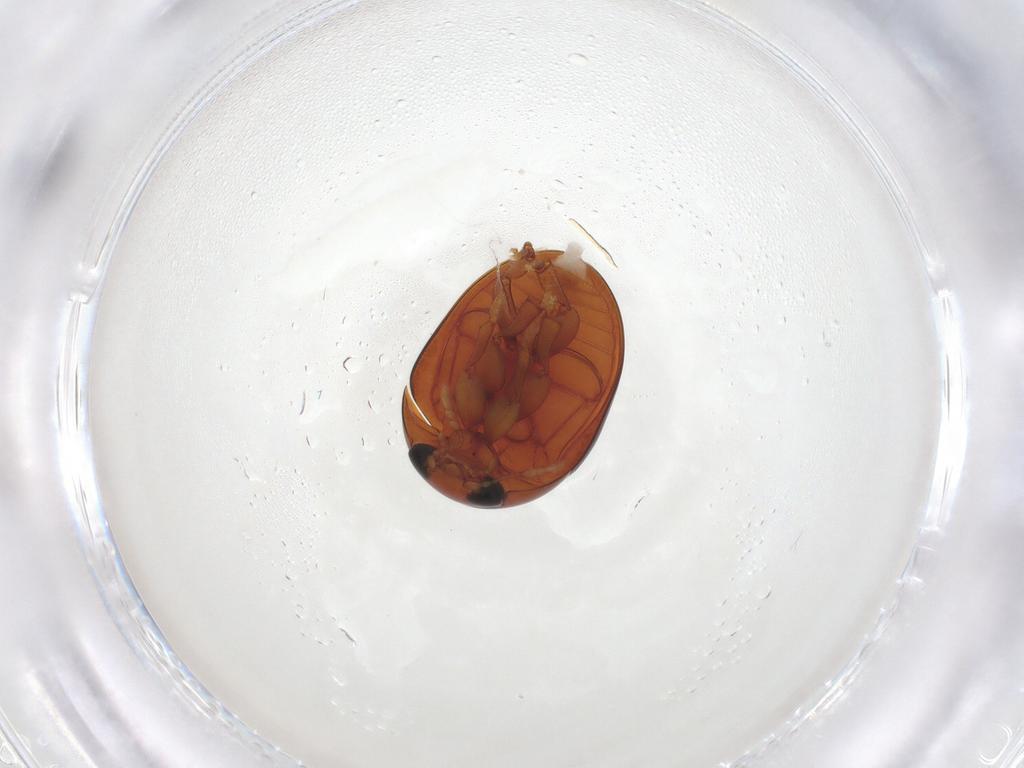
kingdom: Animalia
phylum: Arthropoda
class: Insecta
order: Coleoptera
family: Phalacridae
